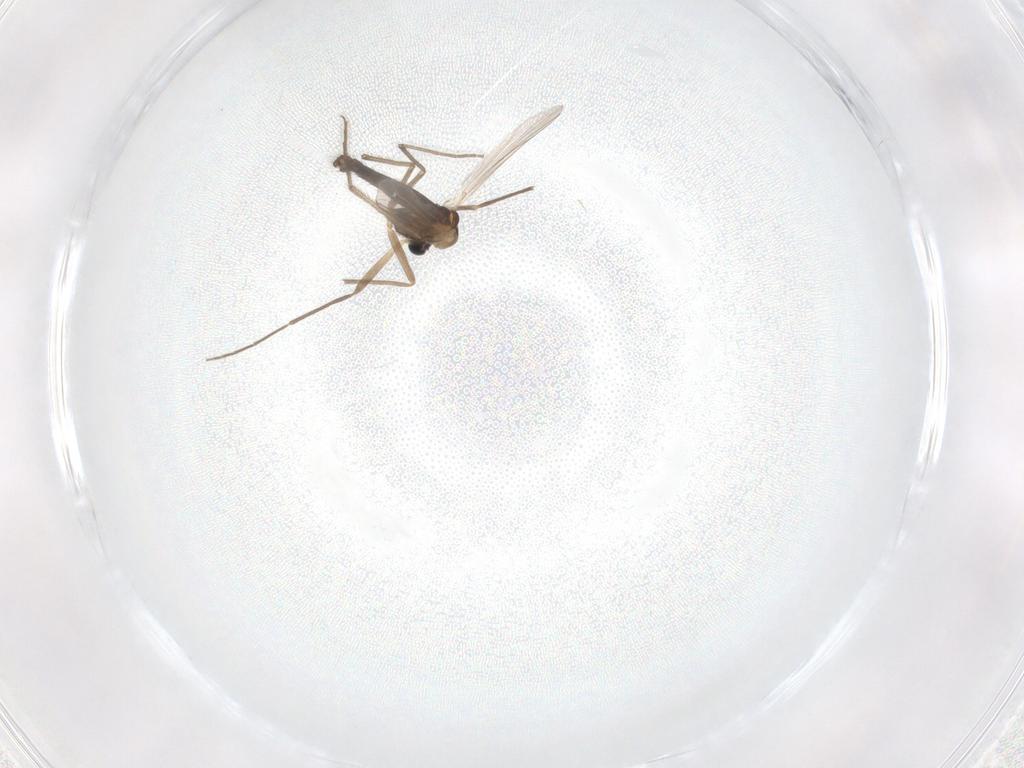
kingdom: Animalia
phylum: Arthropoda
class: Insecta
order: Diptera
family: Chironomidae
